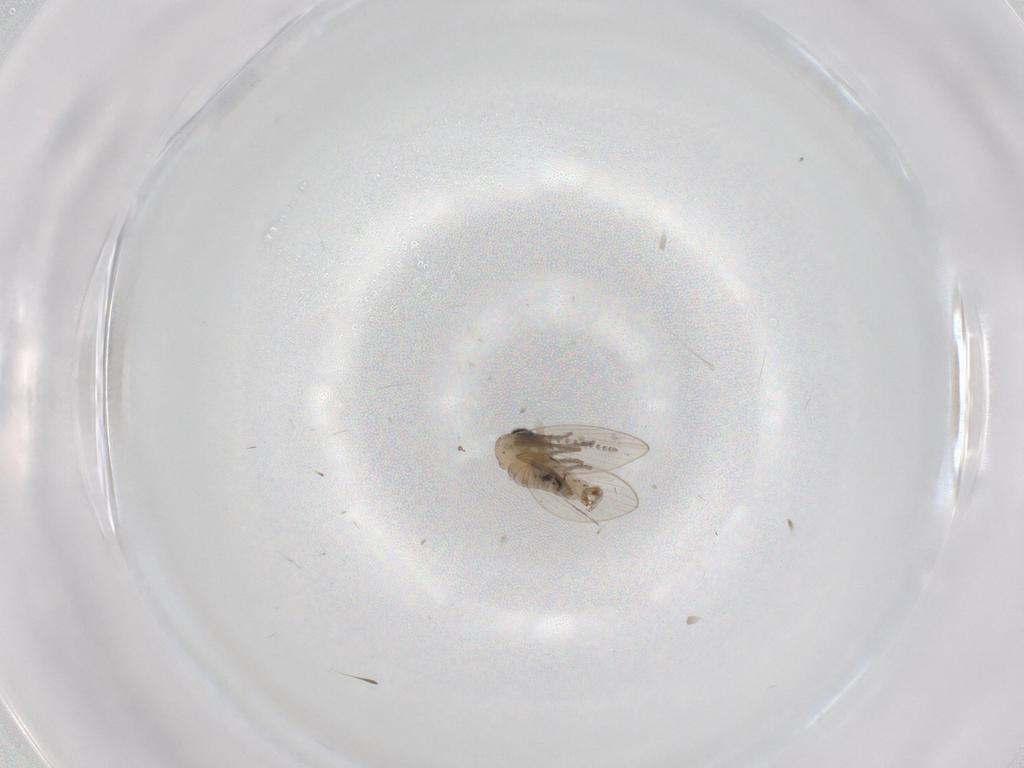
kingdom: Animalia
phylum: Arthropoda
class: Insecta
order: Diptera
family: Psychodidae
